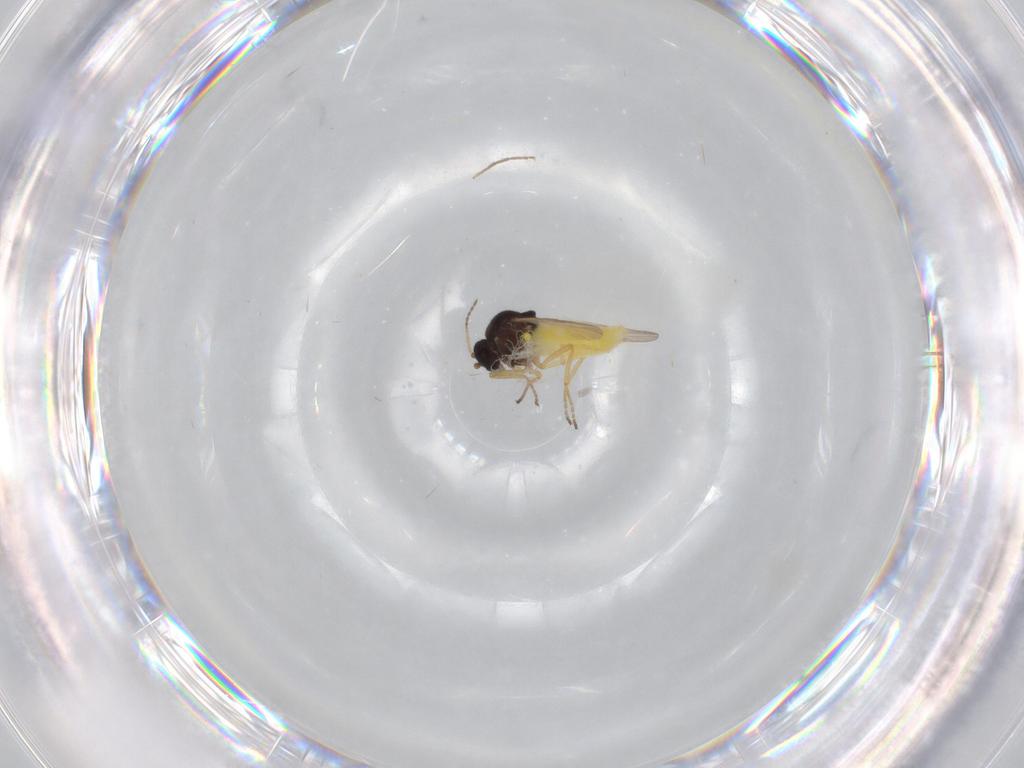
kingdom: Animalia
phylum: Arthropoda
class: Insecta
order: Diptera
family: Ceratopogonidae
